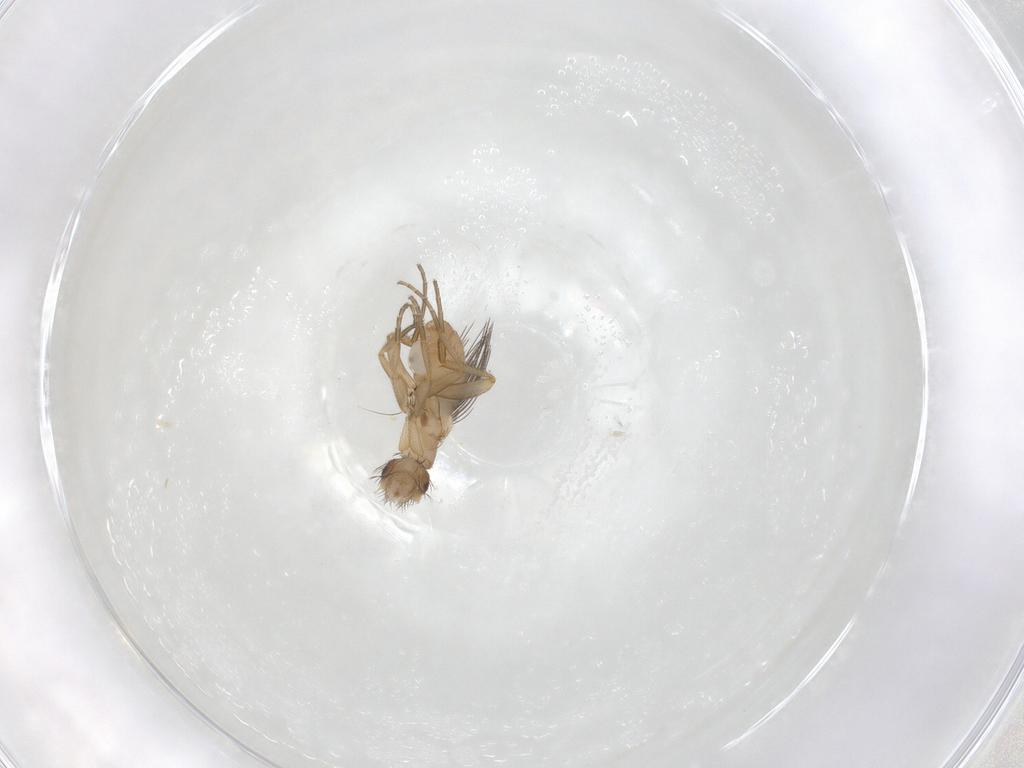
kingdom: Animalia
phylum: Arthropoda
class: Insecta
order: Diptera
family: Phoridae
